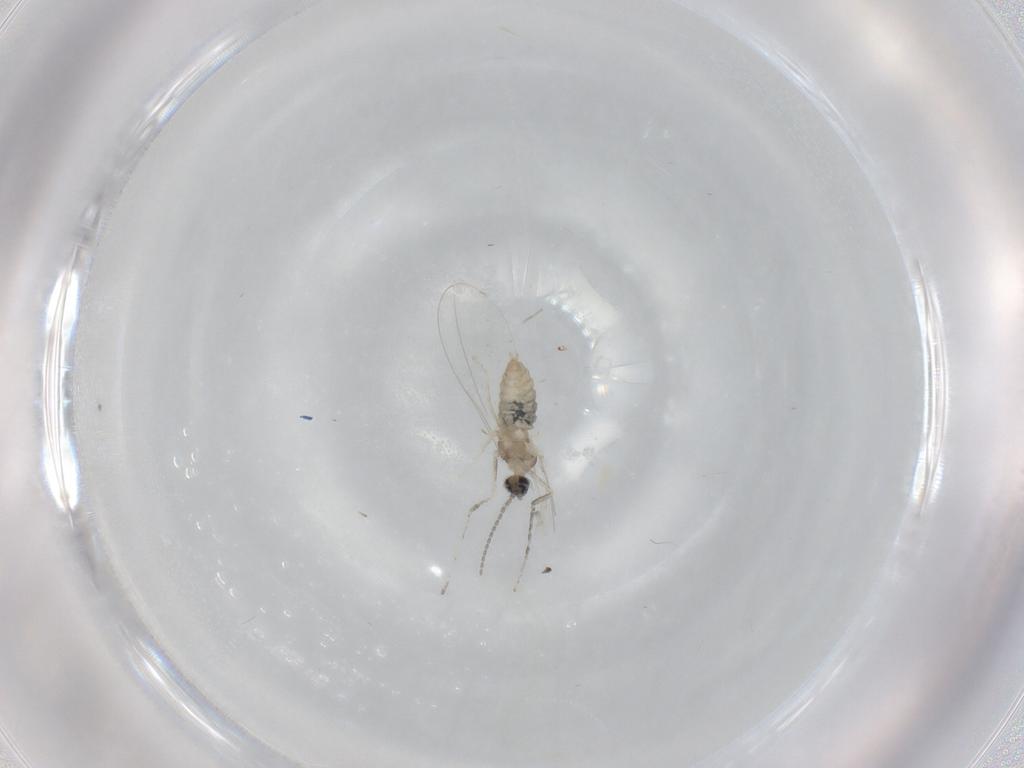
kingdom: Animalia
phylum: Arthropoda
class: Insecta
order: Diptera
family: Cecidomyiidae
